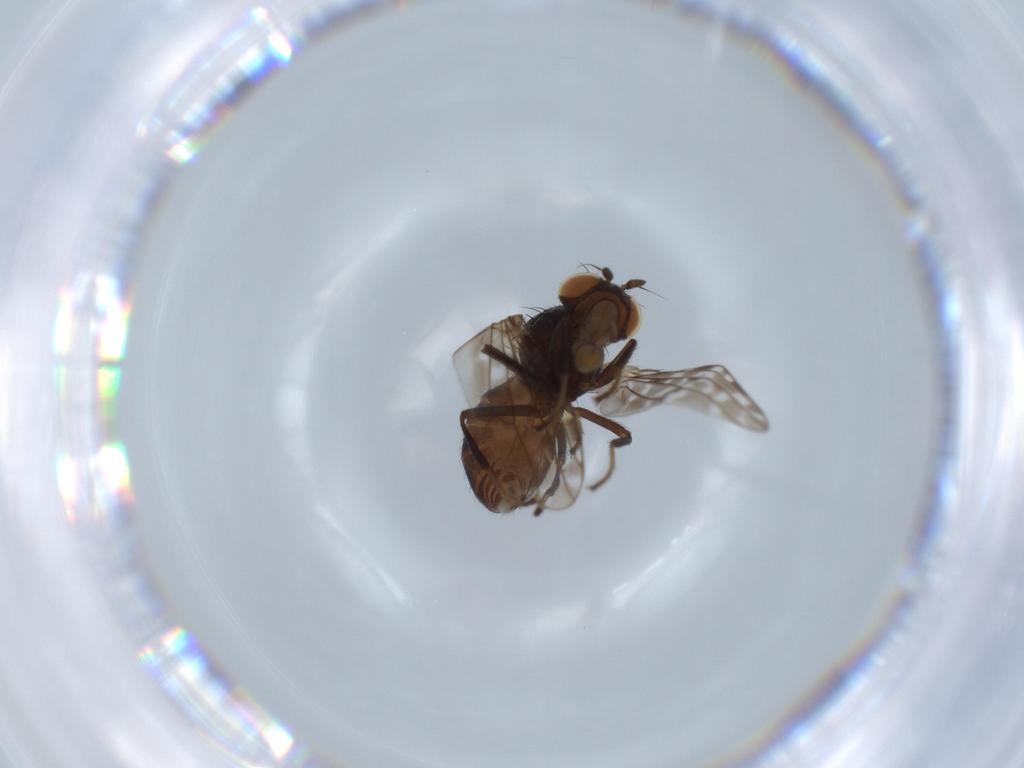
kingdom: Animalia
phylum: Arthropoda
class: Insecta
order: Diptera
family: Ephydridae
